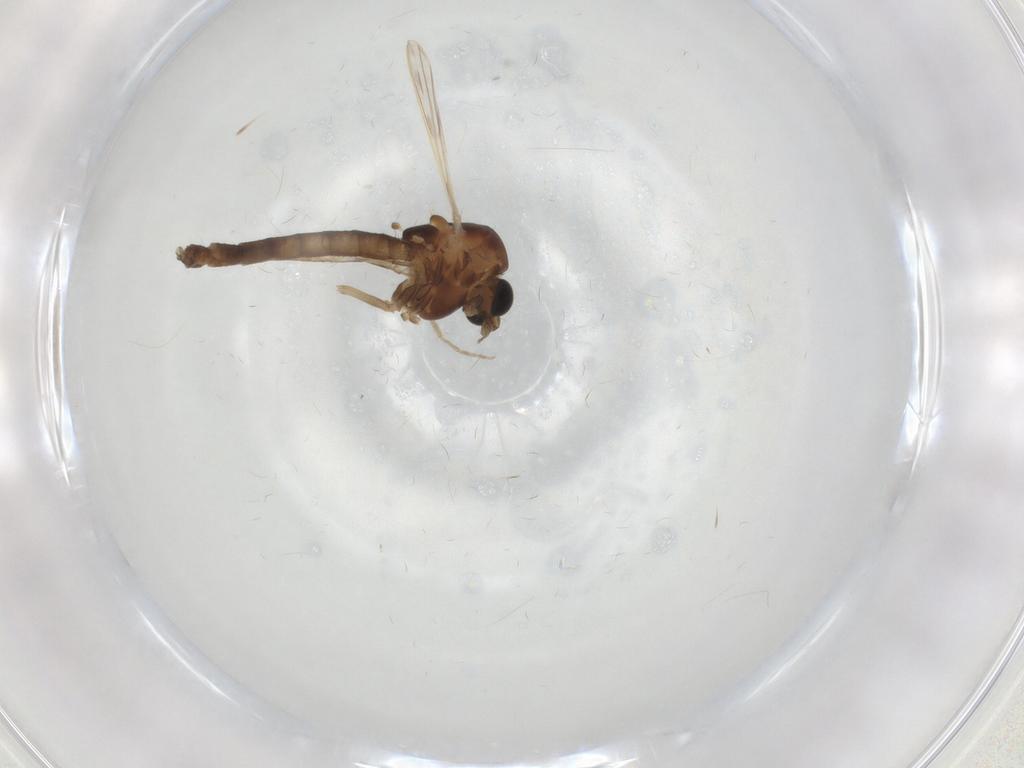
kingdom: Animalia
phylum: Arthropoda
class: Insecta
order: Diptera
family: Chironomidae
